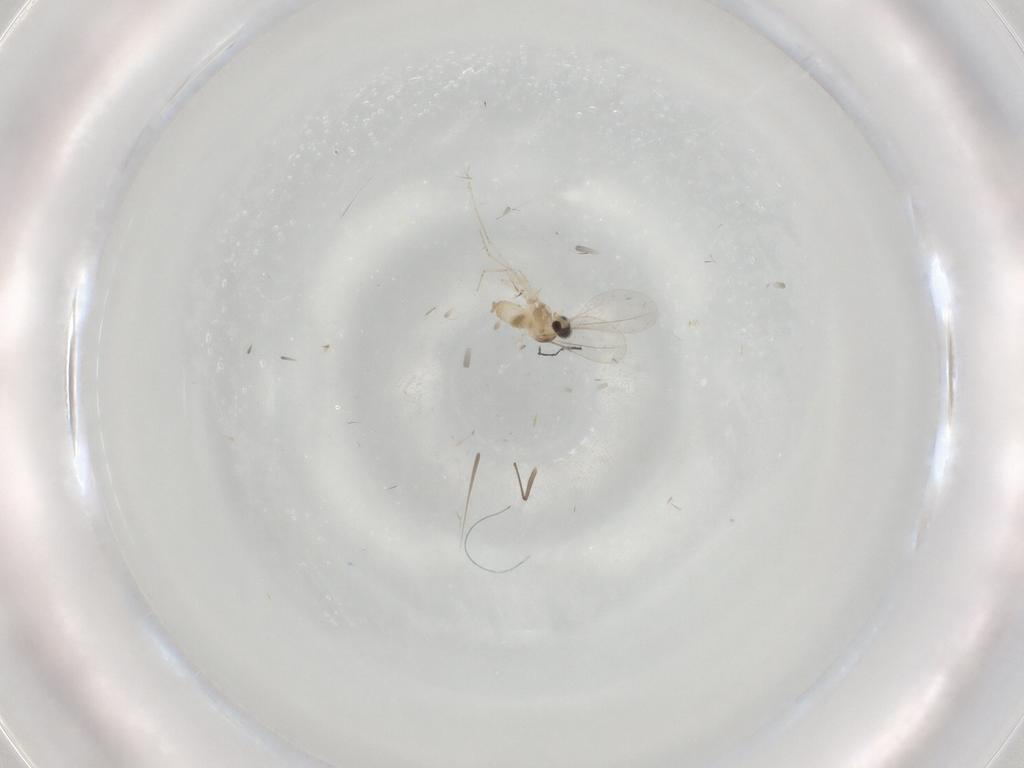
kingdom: Animalia
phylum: Arthropoda
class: Insecta
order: Diptera
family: Cecidomyiidae
